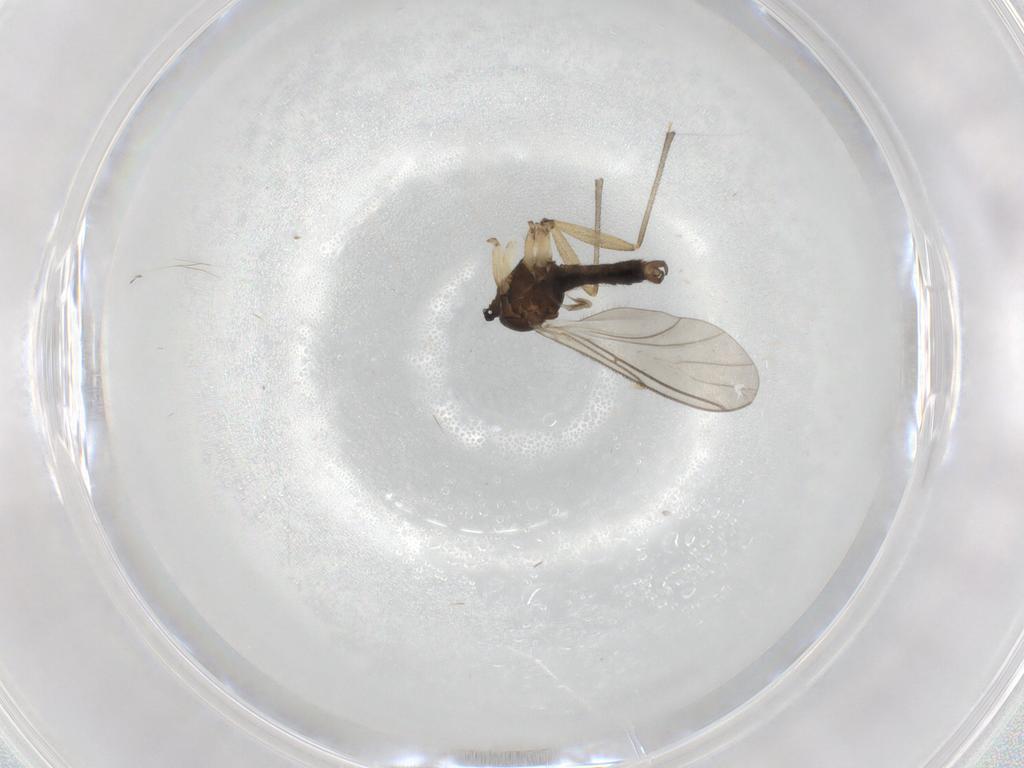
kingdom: Animalia
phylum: Arthropoda
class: Insecta
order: Diptera
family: Sciaridae
